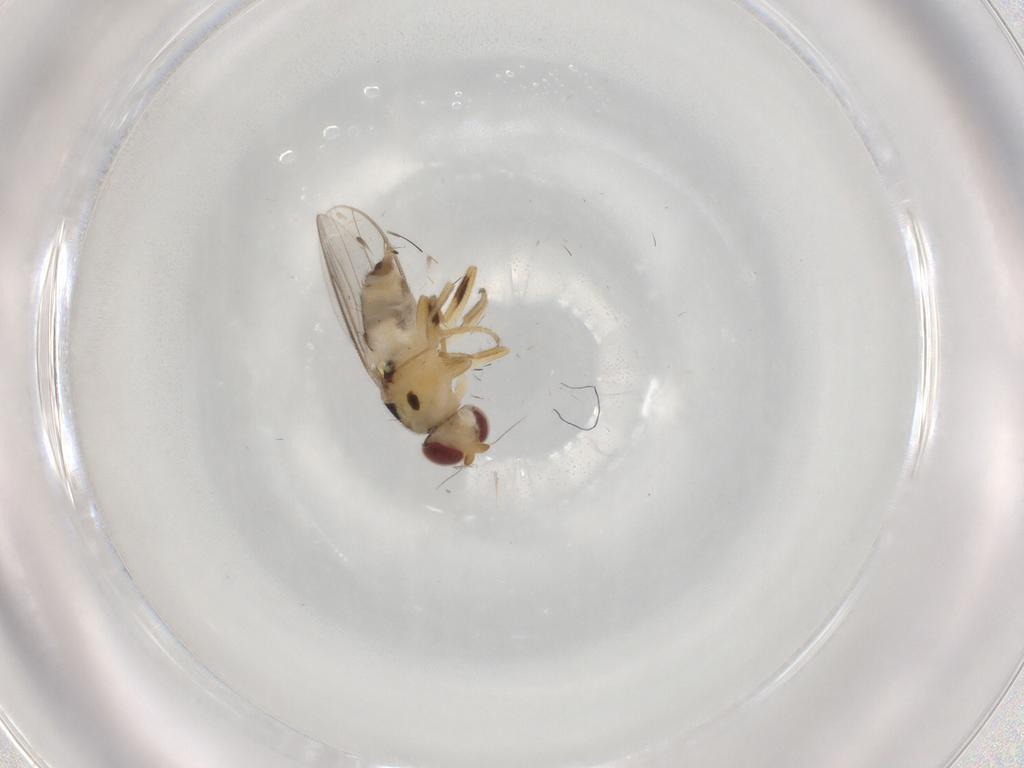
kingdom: Animalia
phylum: Arthropoda
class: Insecta
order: Diptera
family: Chloropidae
